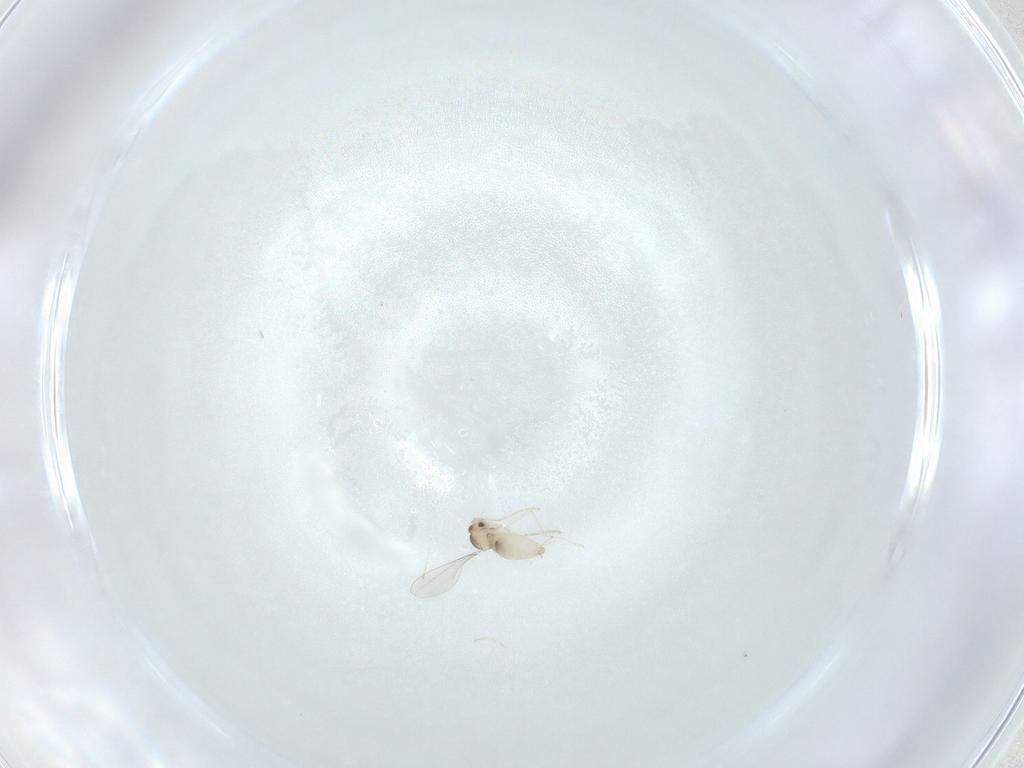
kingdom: Animalia
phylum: Arthropoda
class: Insecta
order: Diptera
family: Cecidomyiidae
